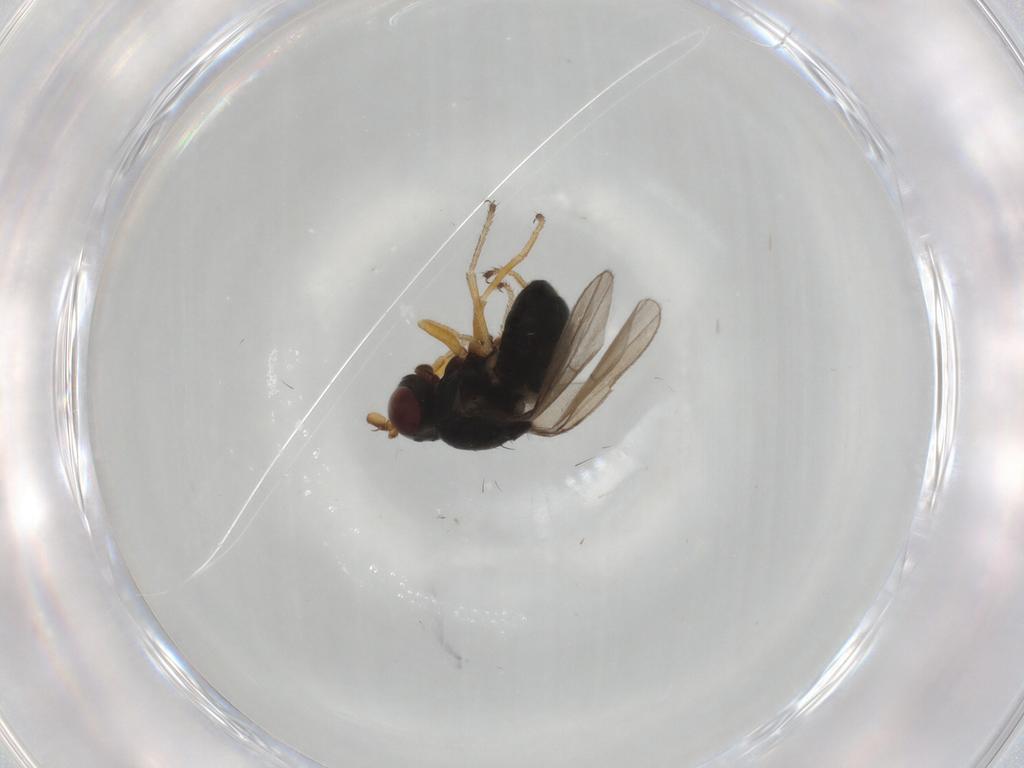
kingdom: Animalia
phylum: Arthropoda
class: Insecta
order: Diptera
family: Ephydridae
